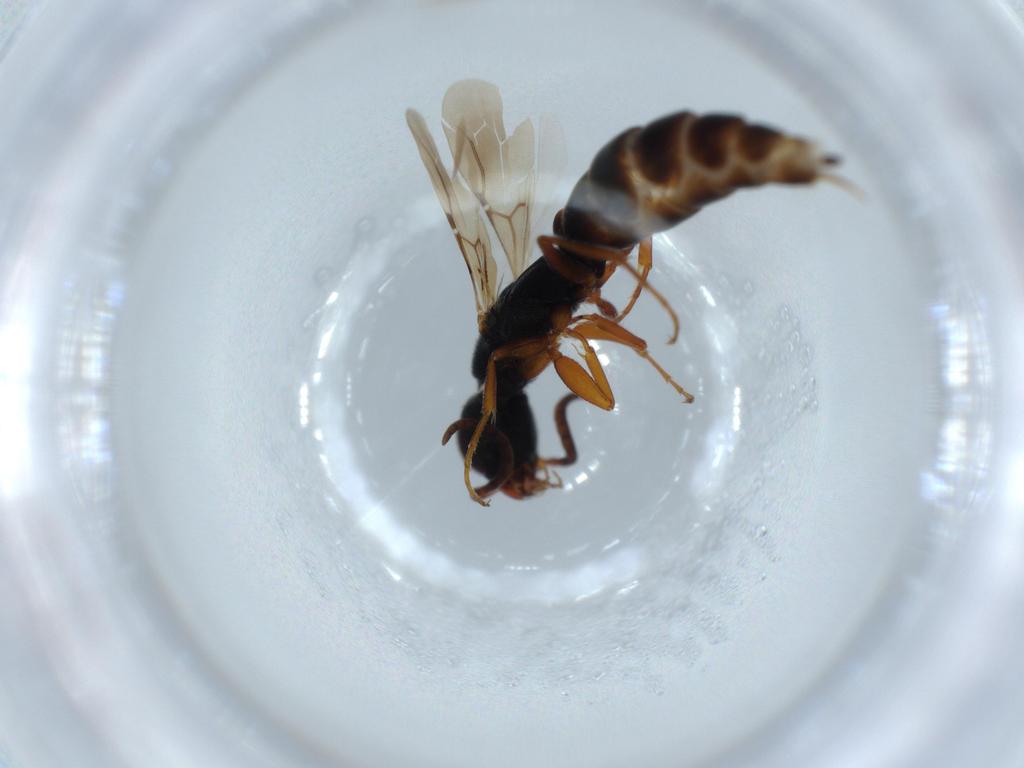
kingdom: Animalia
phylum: Arthropoda
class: Insecta
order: Hymenoptera
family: Bethylidae
